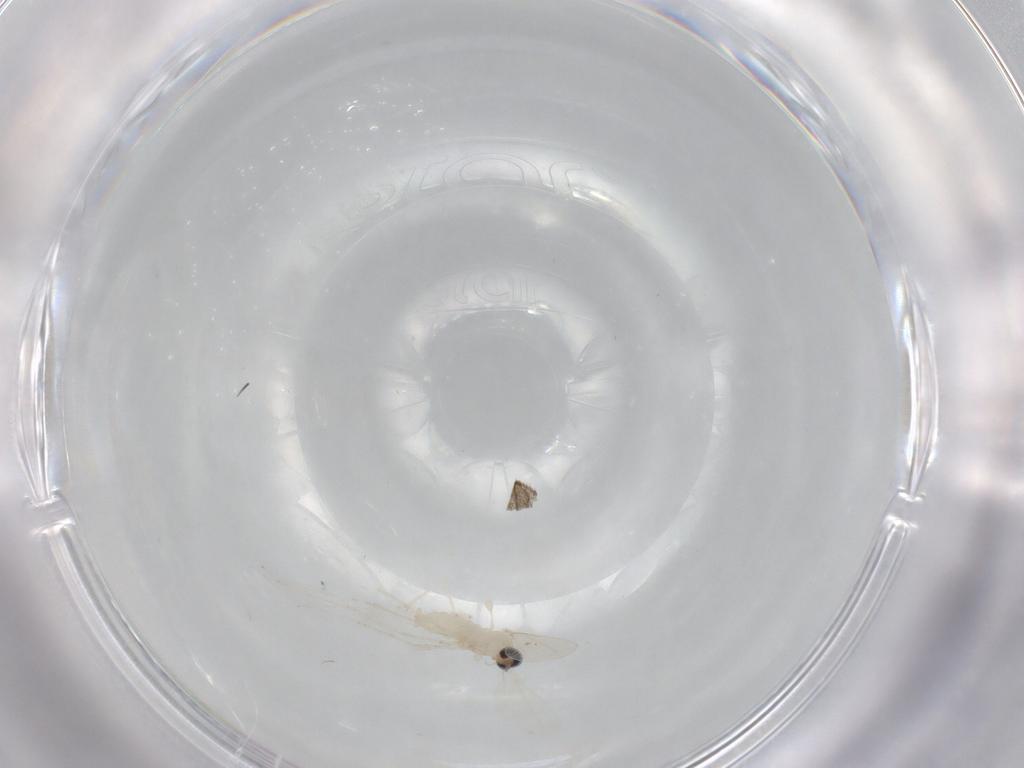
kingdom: Animalia
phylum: Arthropoda
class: Insecta
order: Diptera
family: Cecidomyiidae
